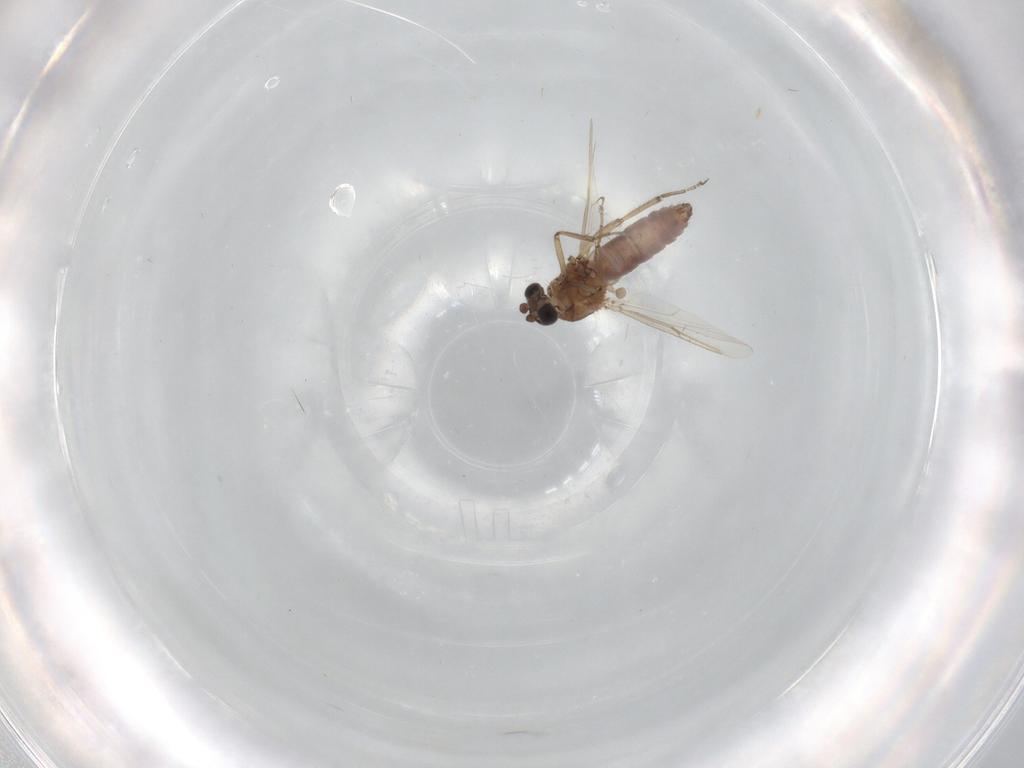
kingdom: Animalia
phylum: Arthropoda
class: Insecta
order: Diptera
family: Ceratopogonidae
